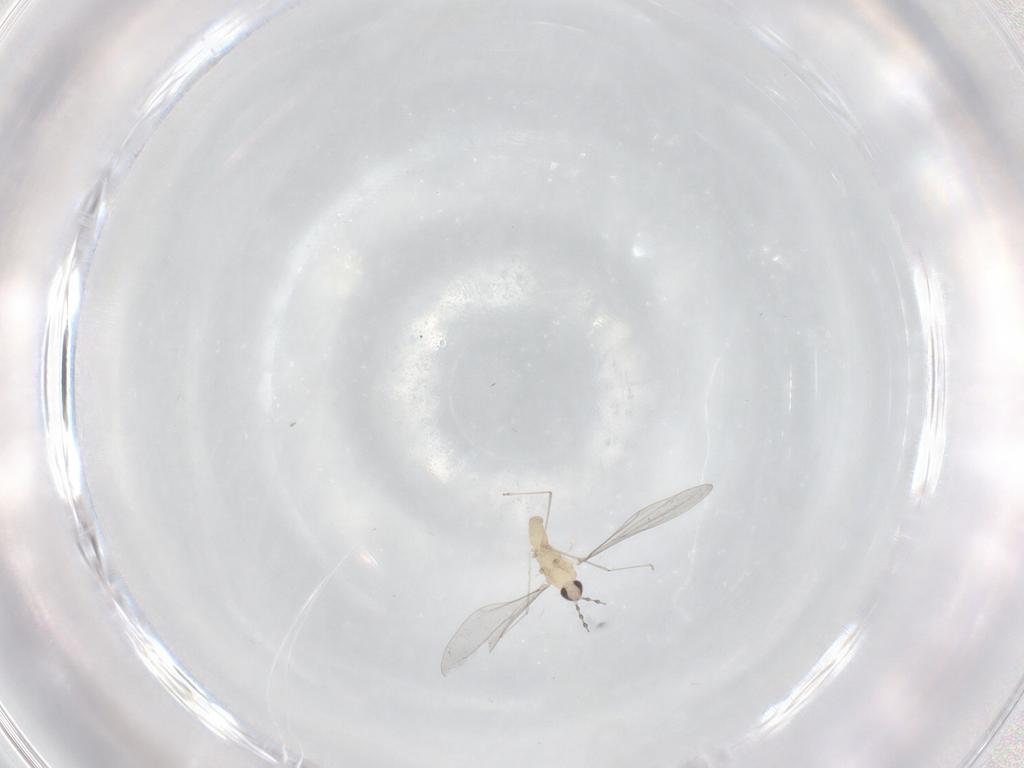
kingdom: Animalia
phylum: Arthropoda
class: Insecta
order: Diptera
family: Cecidomyiidae
